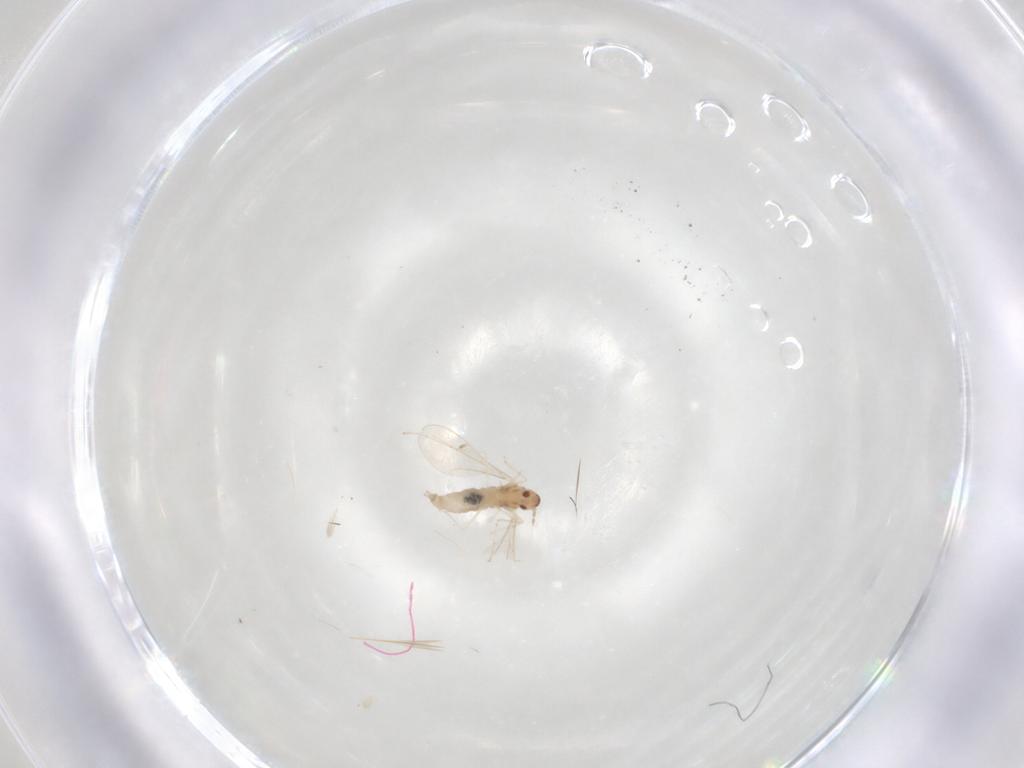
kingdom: Animalia
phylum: Arthropoda
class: Insecta
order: Diptera
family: Cecidomyiidae
